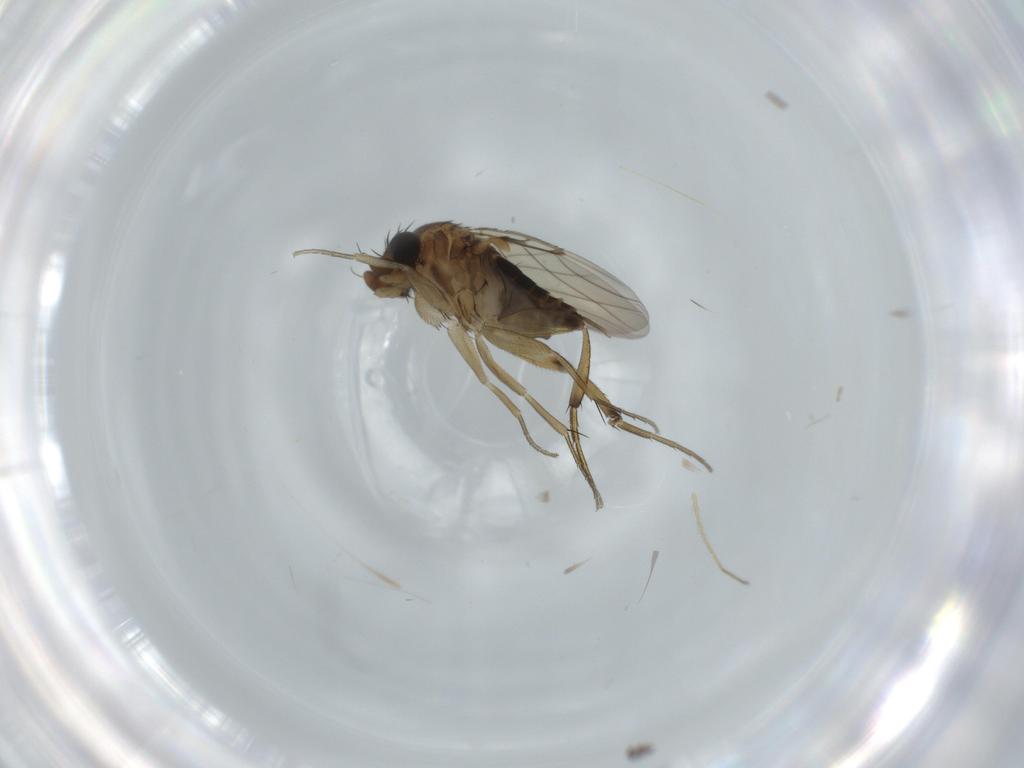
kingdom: Animalia
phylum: Arthropoda
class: Insecta
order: Diptera
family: Phoridae
